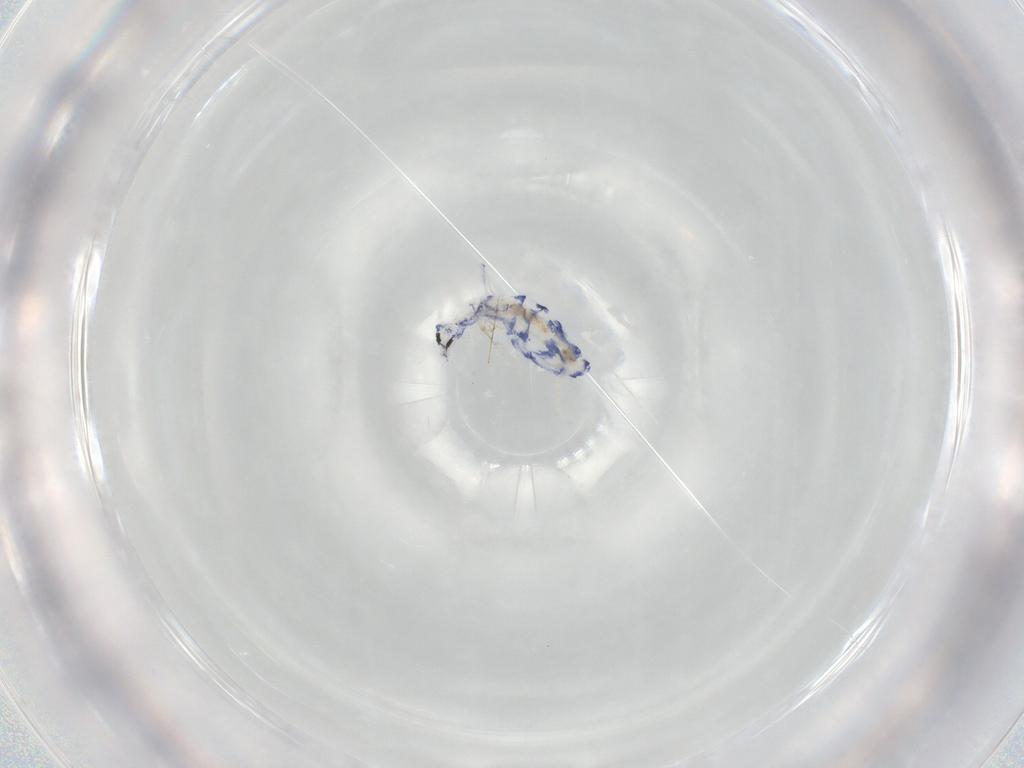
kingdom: Animalia
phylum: Arthropoda
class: Collembola
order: Entomobryomorpha
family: Entomobryidae
